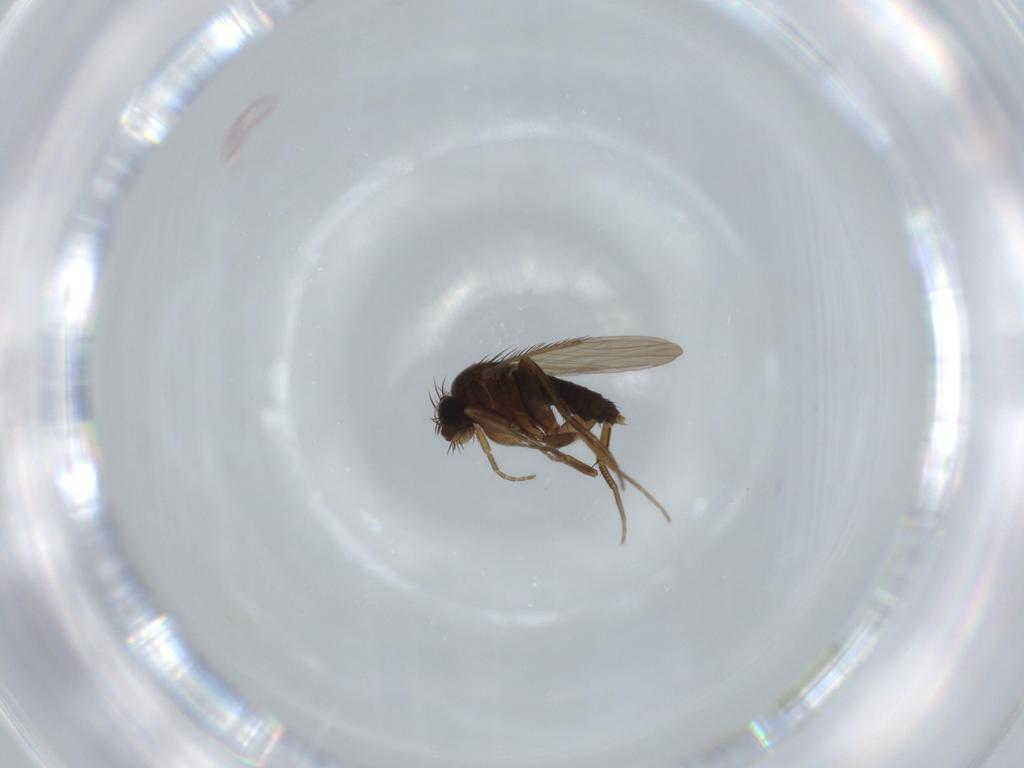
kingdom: Animalia
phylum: Arthropoda
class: Insecta
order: Diptera
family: Phoridae
